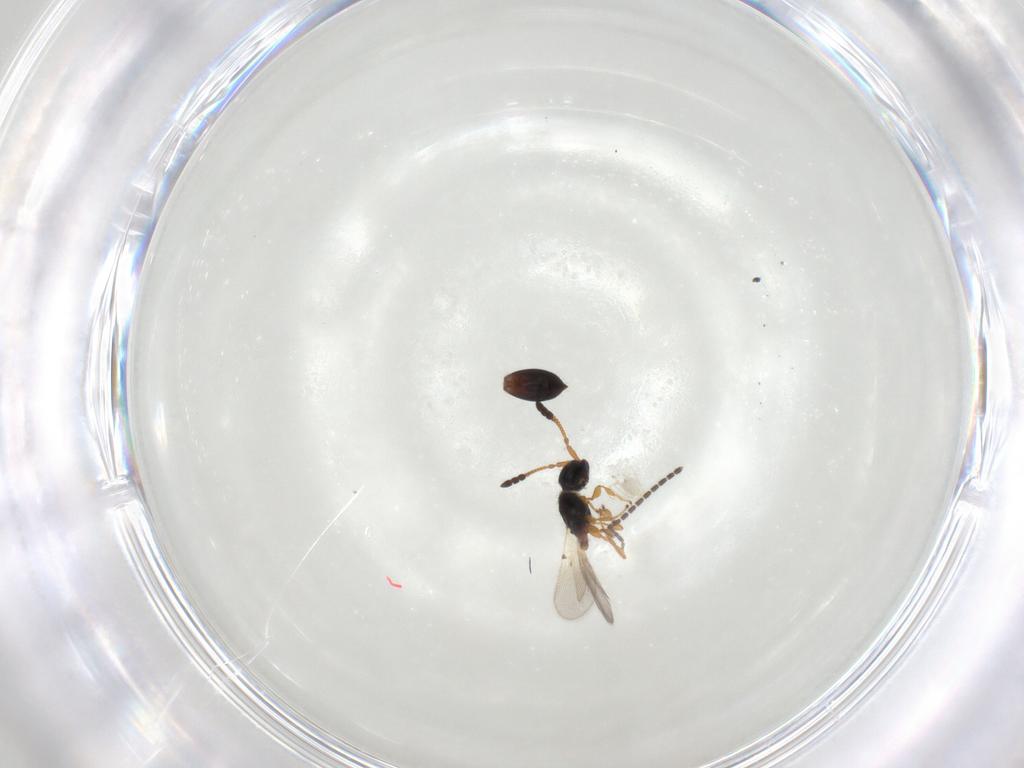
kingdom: Animalia
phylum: Arthropoda
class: Insecta
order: Hymenoptera
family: Diapriidae
